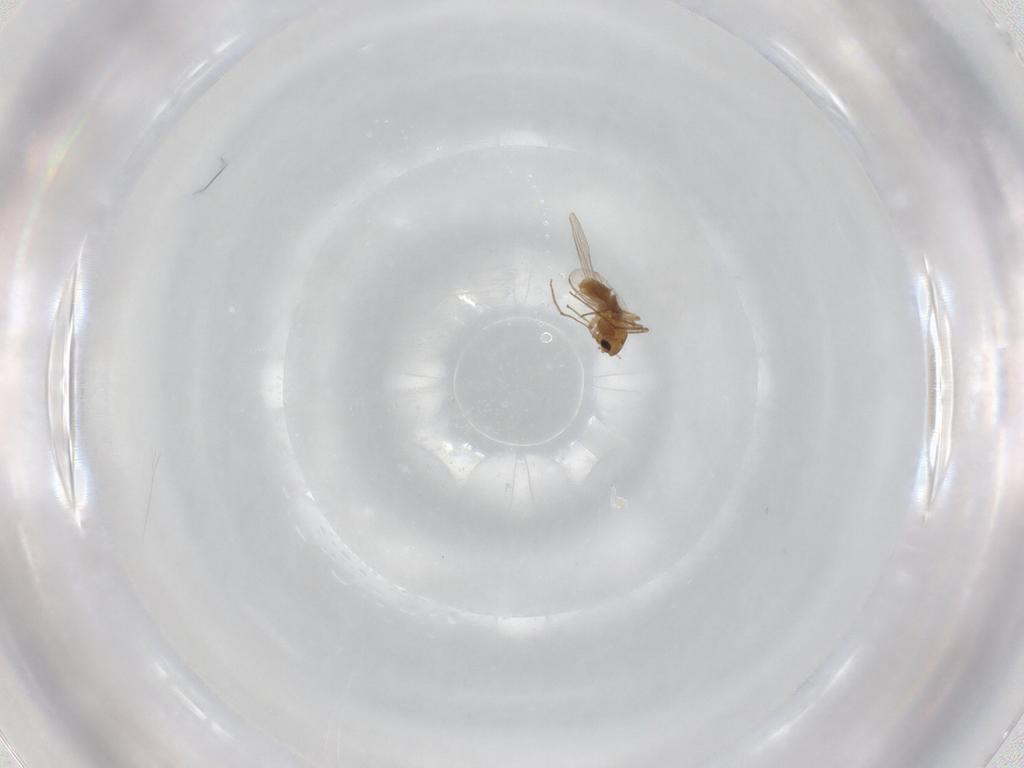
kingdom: Animalia
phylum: Arthropoda
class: Insecta
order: Diptera
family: Chironomidae
